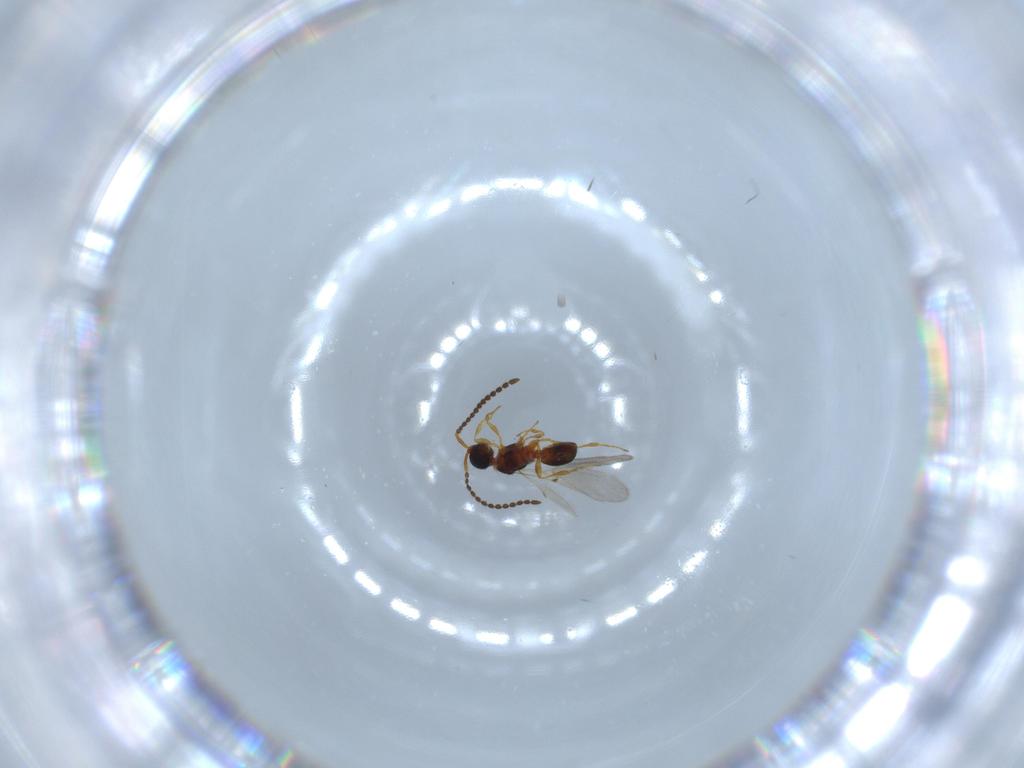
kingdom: Animalia
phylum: Arthropoda
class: Insecta
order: Hymenoptera
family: Diapriidae
